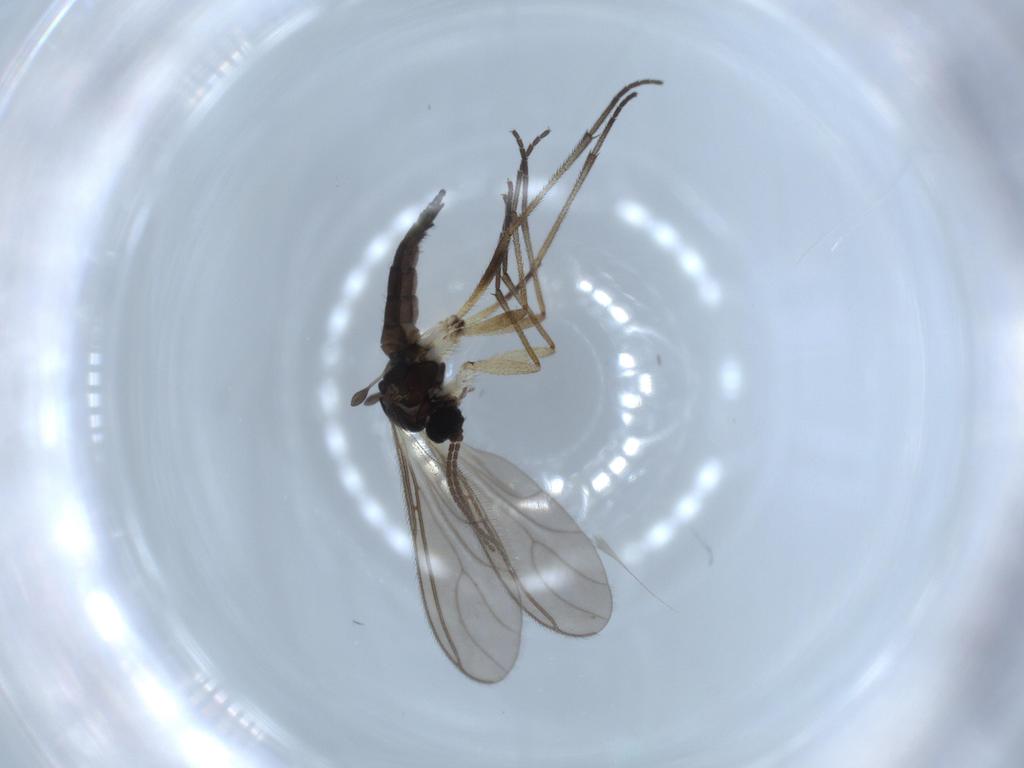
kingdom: Animalia
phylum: Arthropoda
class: Insecta
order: Diptera
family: Sciaridae
